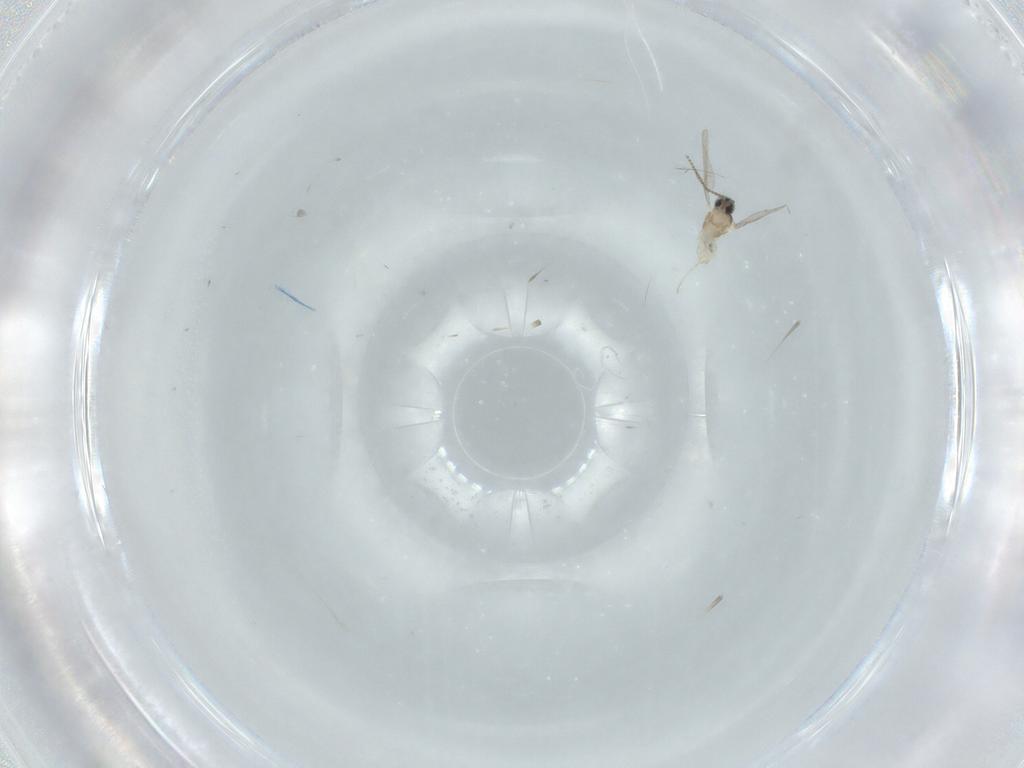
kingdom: Animalia
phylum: Arthropoda
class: Insecta
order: Diptera
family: Cecidomyiidae
